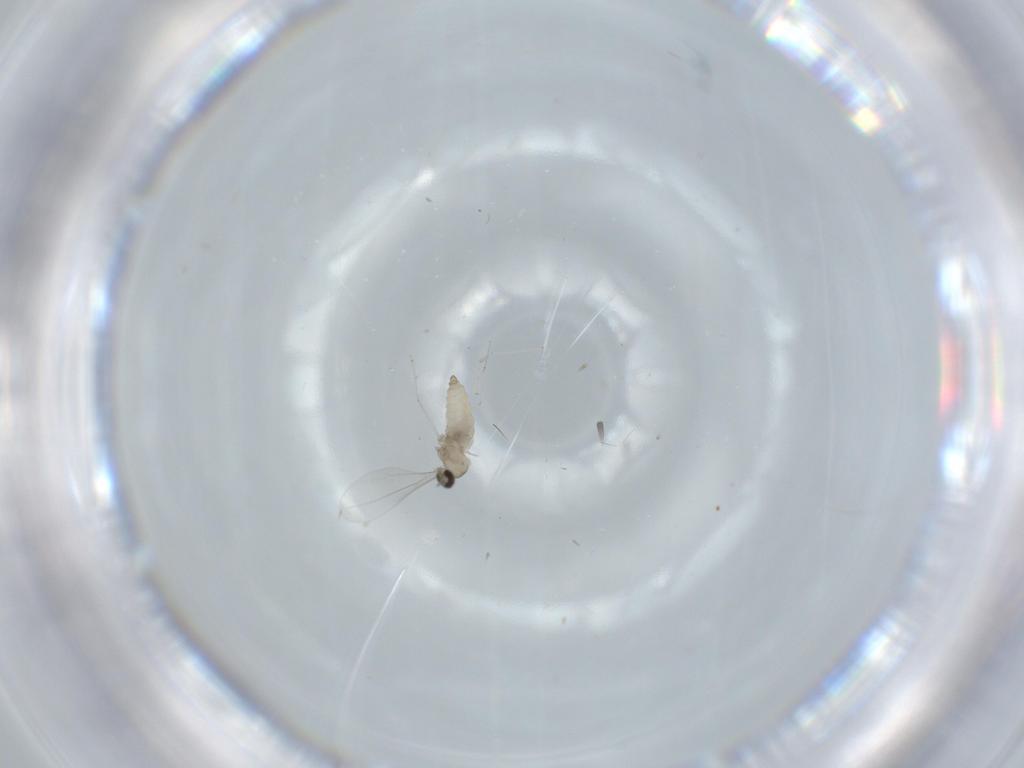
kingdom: Animalia
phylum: Arthropoda
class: Insecta
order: Diptera
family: Cecidomyiidae
